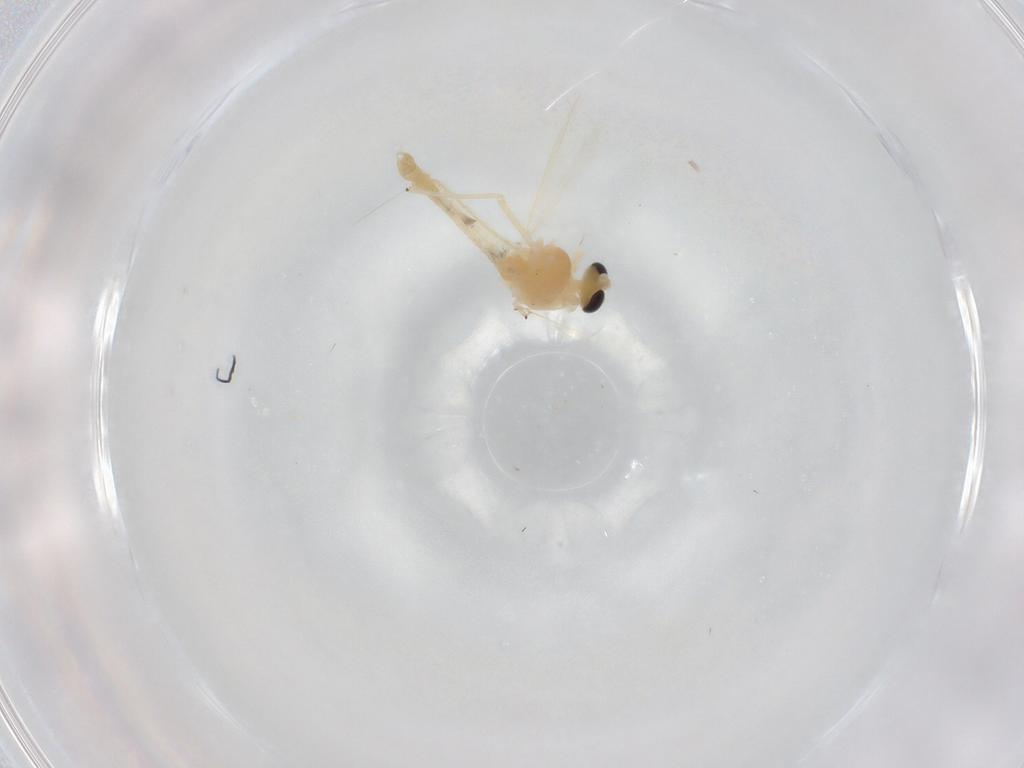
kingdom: Animalia
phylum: Arthropoda
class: Insecta
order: Diptera
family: Chironomidae
